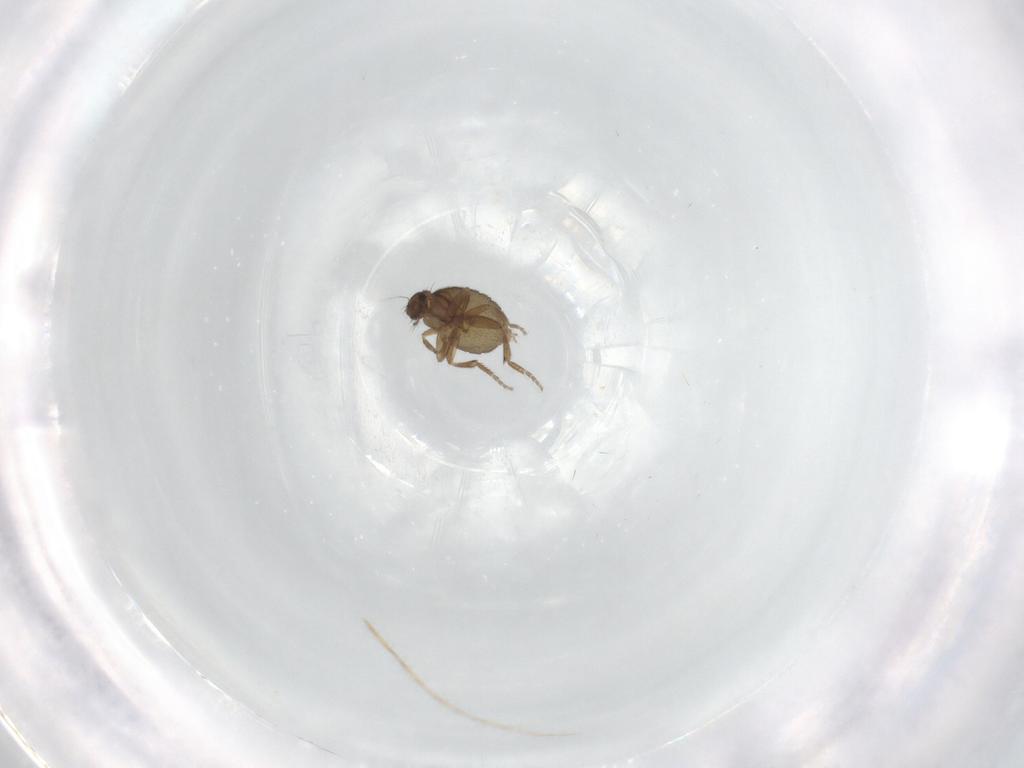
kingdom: Animalia
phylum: Arthropoda
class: Insecta
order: Diptera
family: Phoridae
